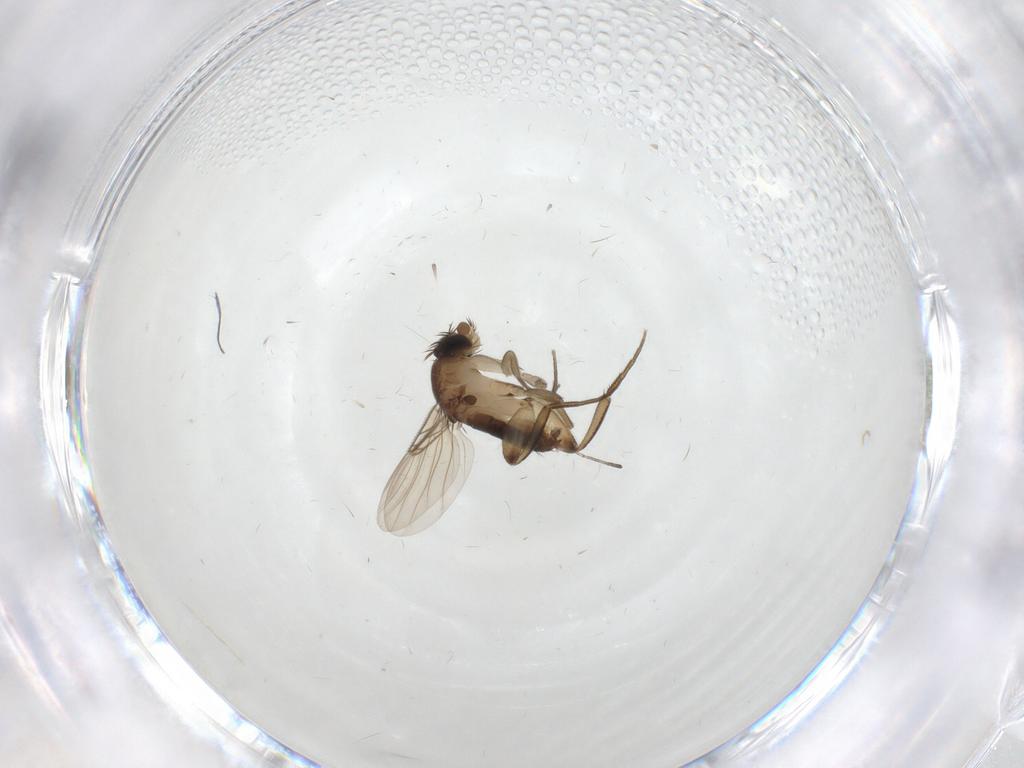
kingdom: Animalia
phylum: Arthropoda
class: Insecta
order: Diptera
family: Phoridae
